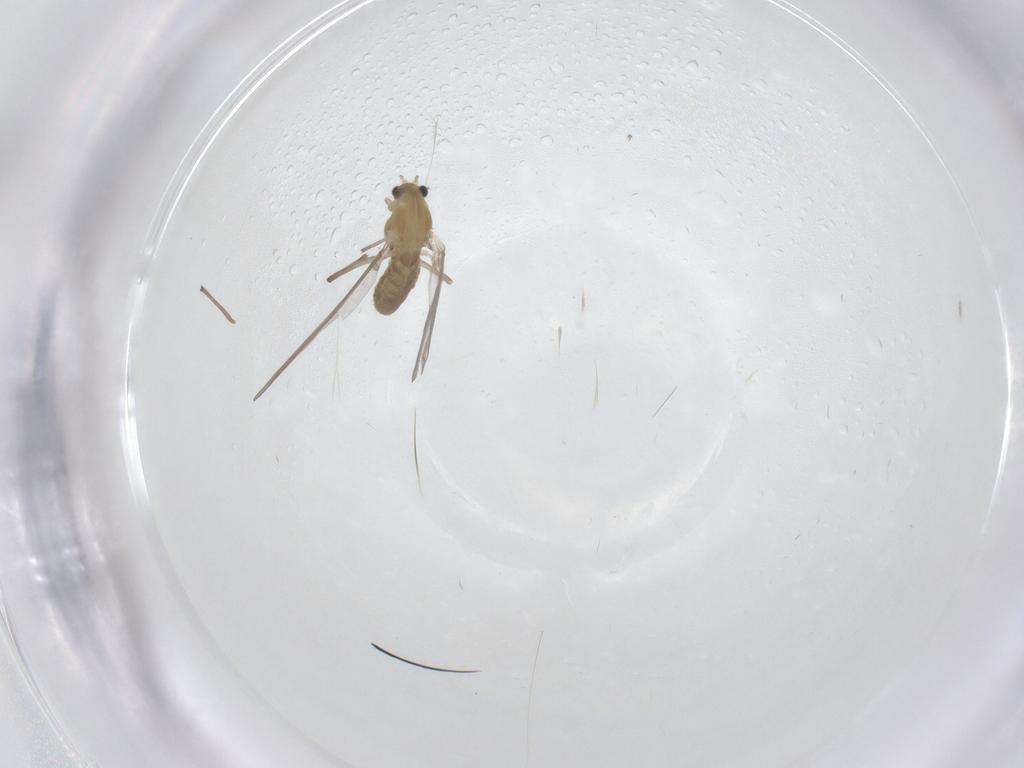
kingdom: Animalia
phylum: Arthropoda
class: Insecta
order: Diptera
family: Chironomidae
